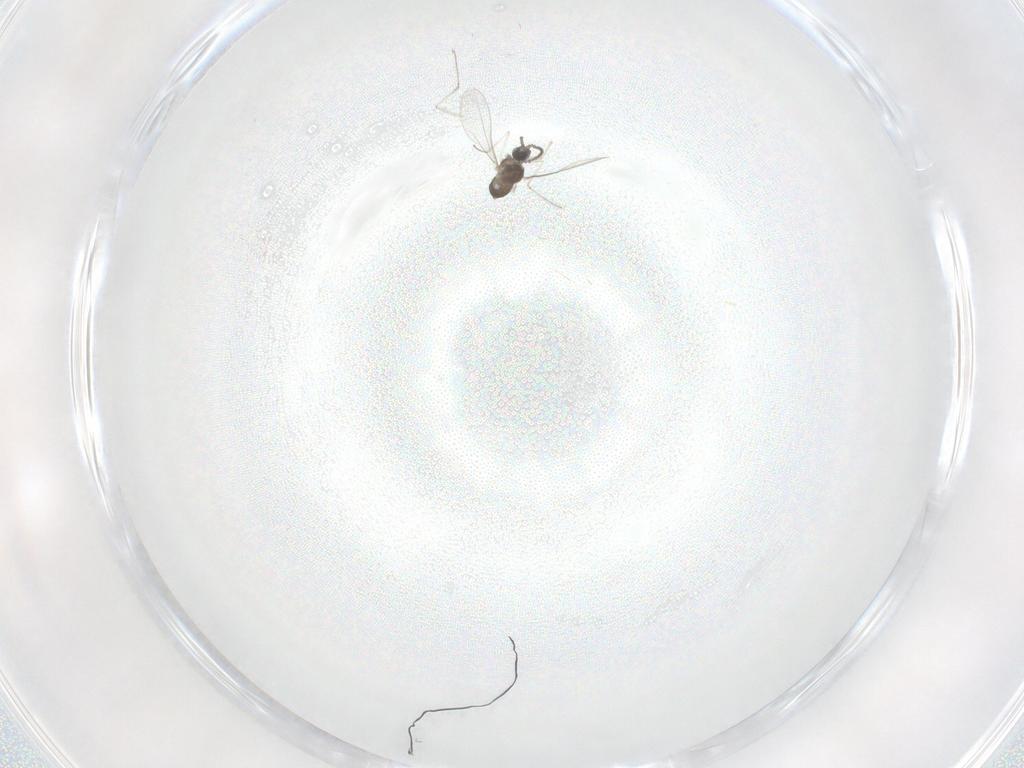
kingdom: Animalia
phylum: Arthropoda
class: Insecta
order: Diptera
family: Cecidomyiidae
